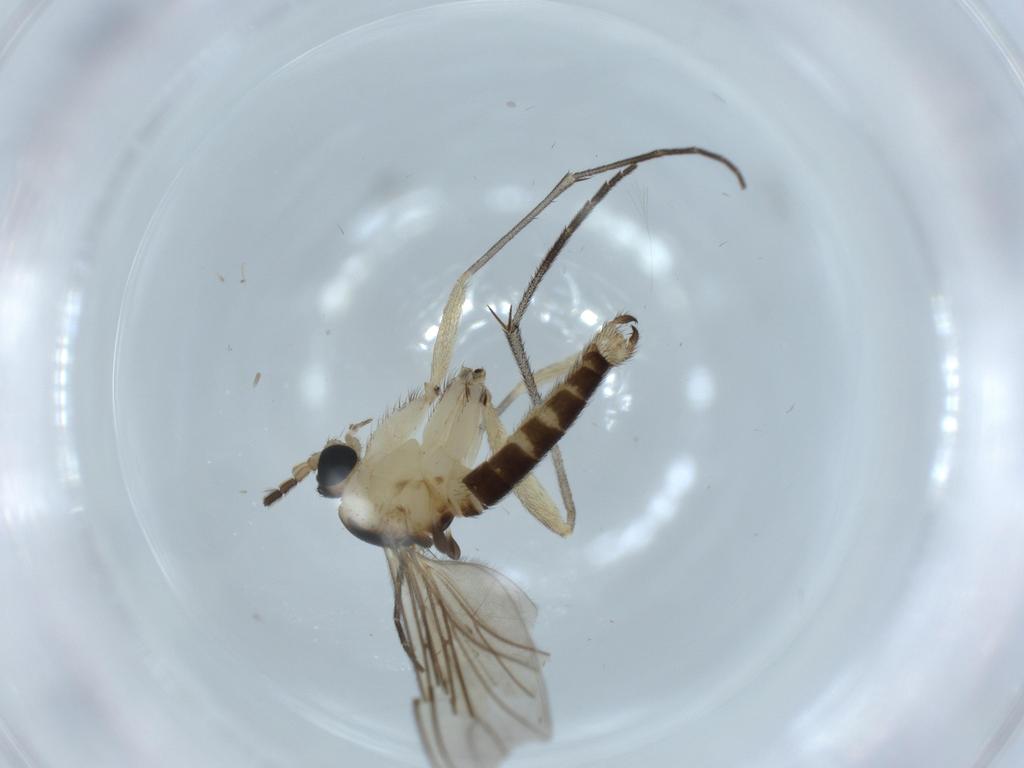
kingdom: Animalia
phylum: Arthropoda
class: Insecta
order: Diptera
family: Sciaridae
